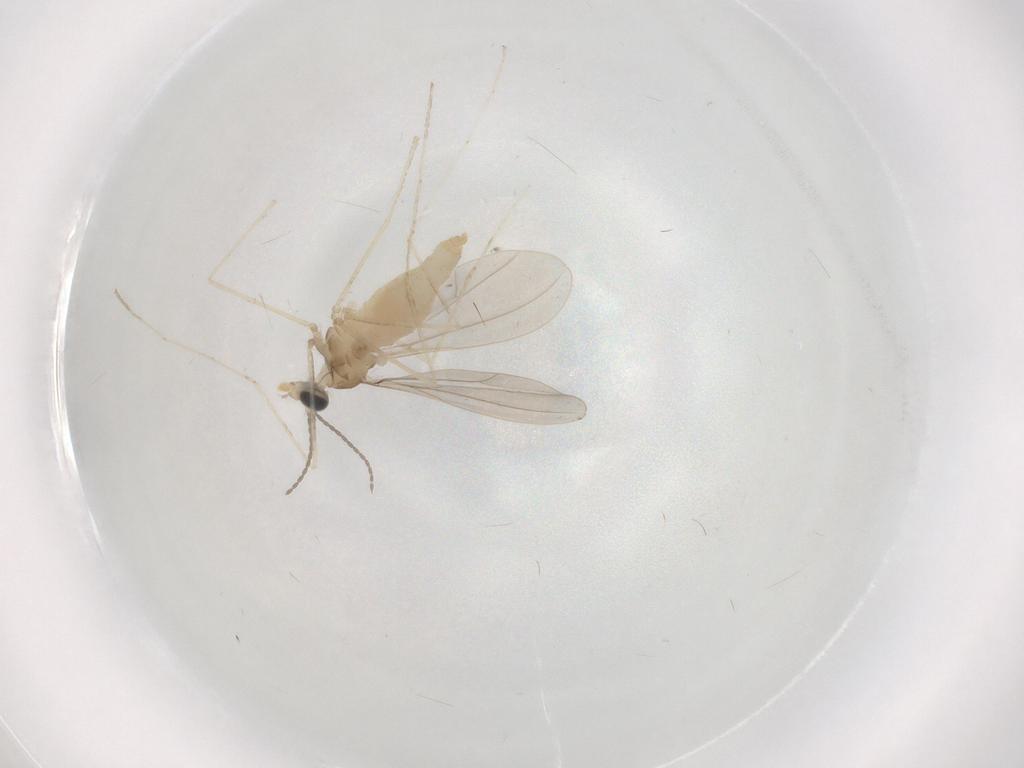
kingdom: Animalia
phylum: Arthropoda
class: Insecta
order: Diptera
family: Cecidomyiidae
